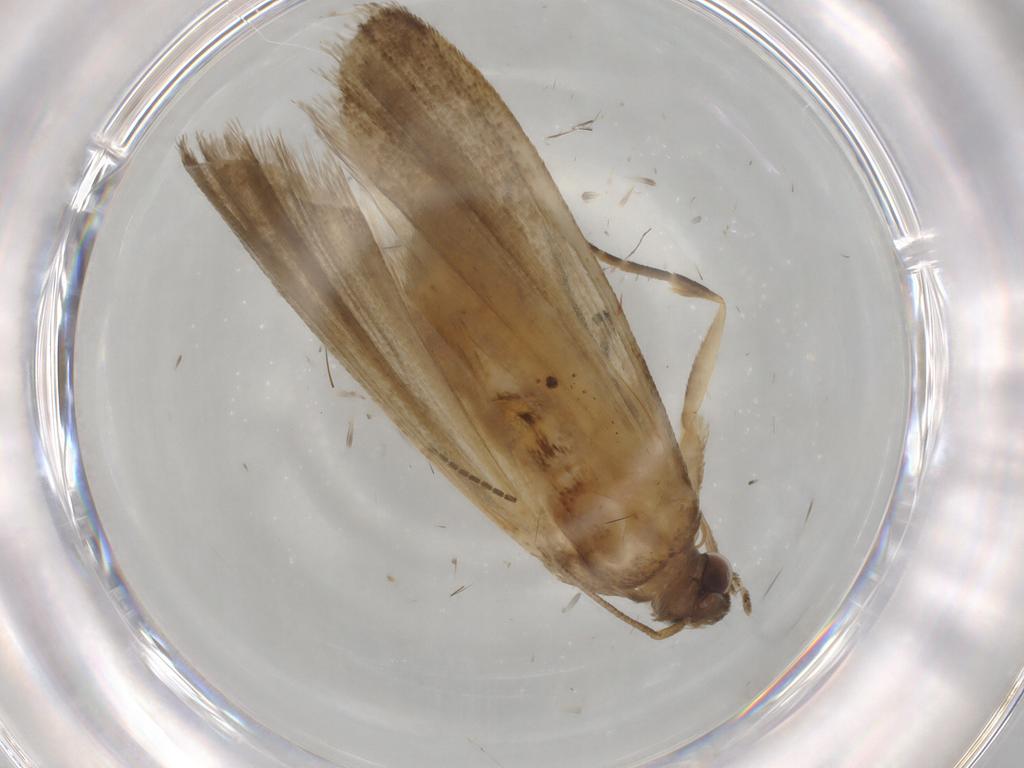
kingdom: Animalia
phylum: Arthropoda
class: Insecta
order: Lepidoptera
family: Noctuidae
